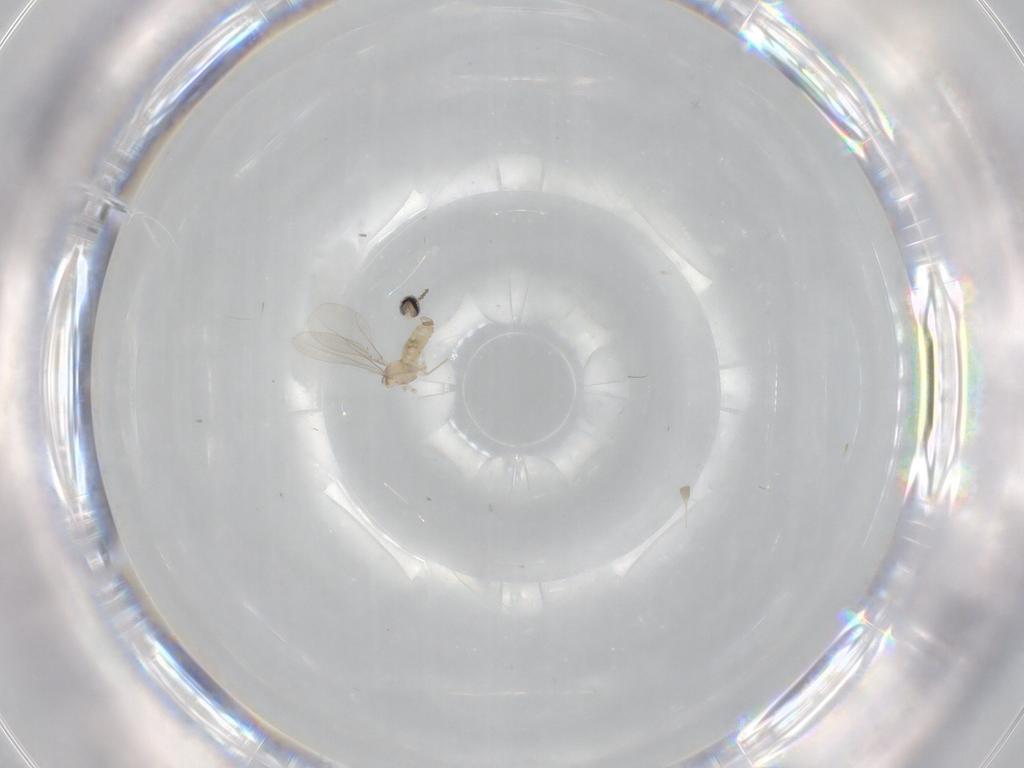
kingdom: Animalia
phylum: Arthropoda
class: Insecta
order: Diptera
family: Cecidomyiidae
